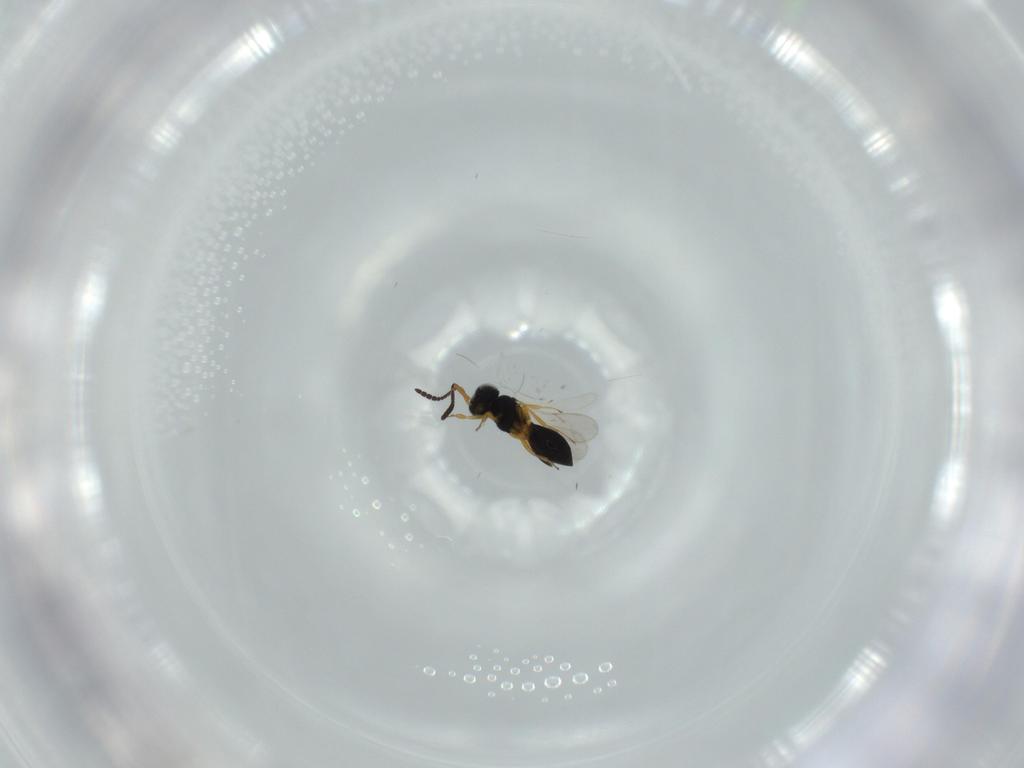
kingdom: Animalia
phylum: Arthropoda
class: Insecta
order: Hymenoptera
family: Scelionidae
